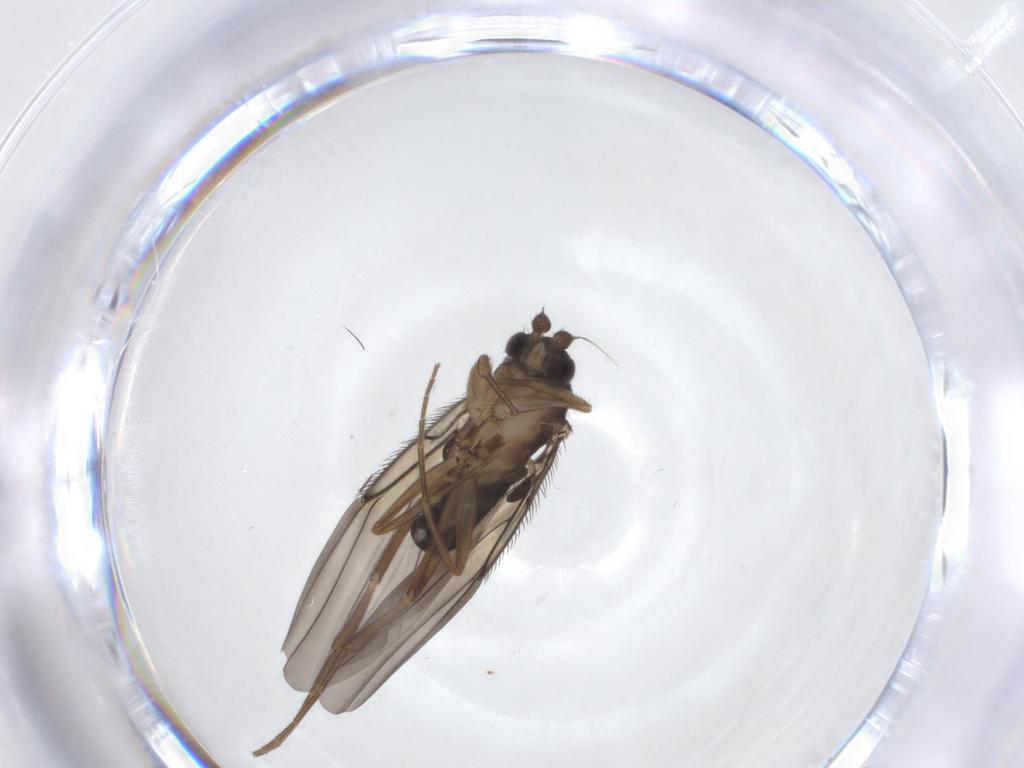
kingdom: Animalia
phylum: Arthropoda
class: Insecta
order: Diptera
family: Phoridae
